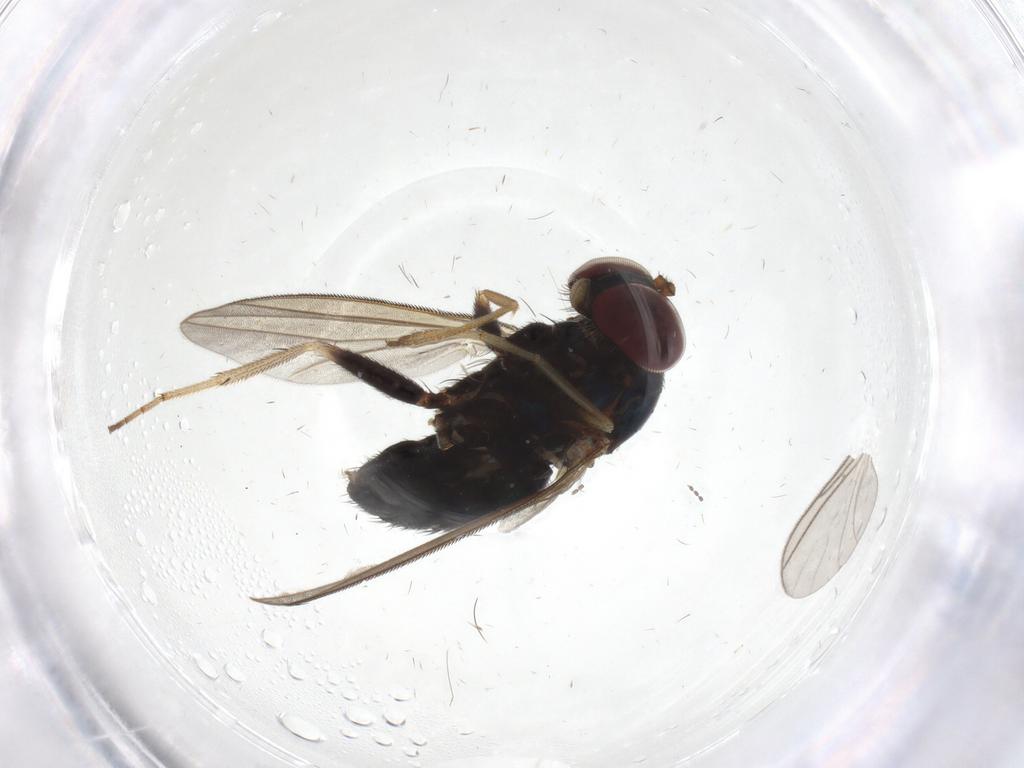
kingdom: Animalia
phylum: Arthropoda
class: Insecta
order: Diptera
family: Dolichopodidae
